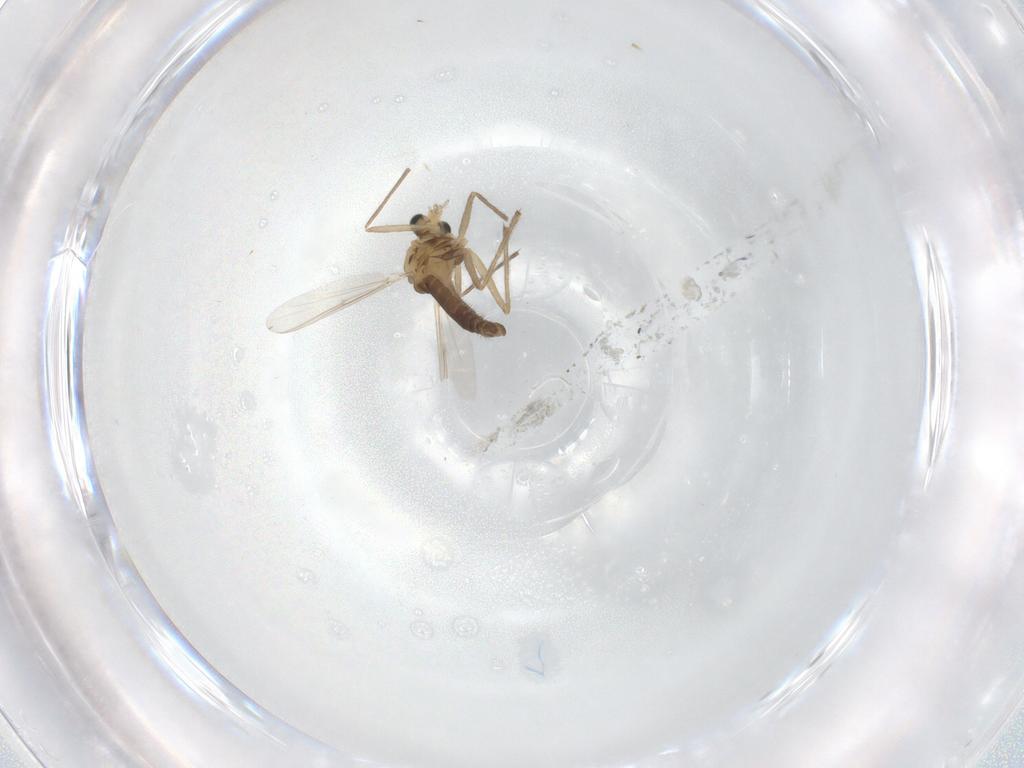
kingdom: Animalia
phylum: Arthropoda
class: Insecta
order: Diptera
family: Chironomidae
